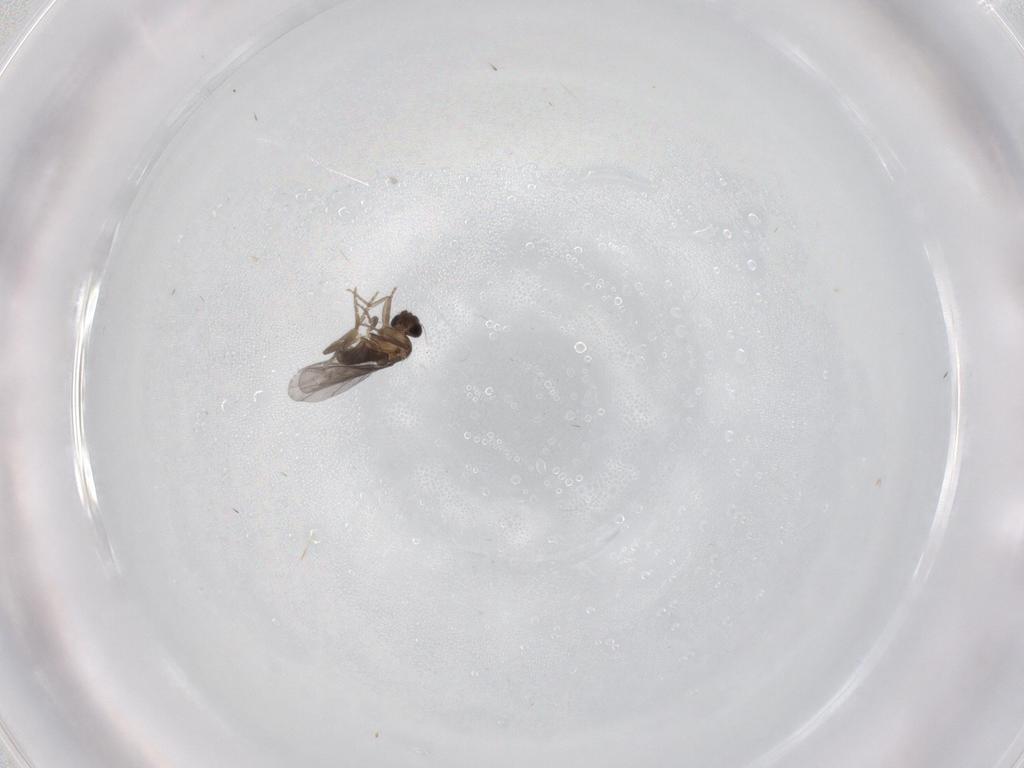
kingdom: Animalia
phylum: Arthropoda
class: Insecta
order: Diptera
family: Cecidomyiidae
